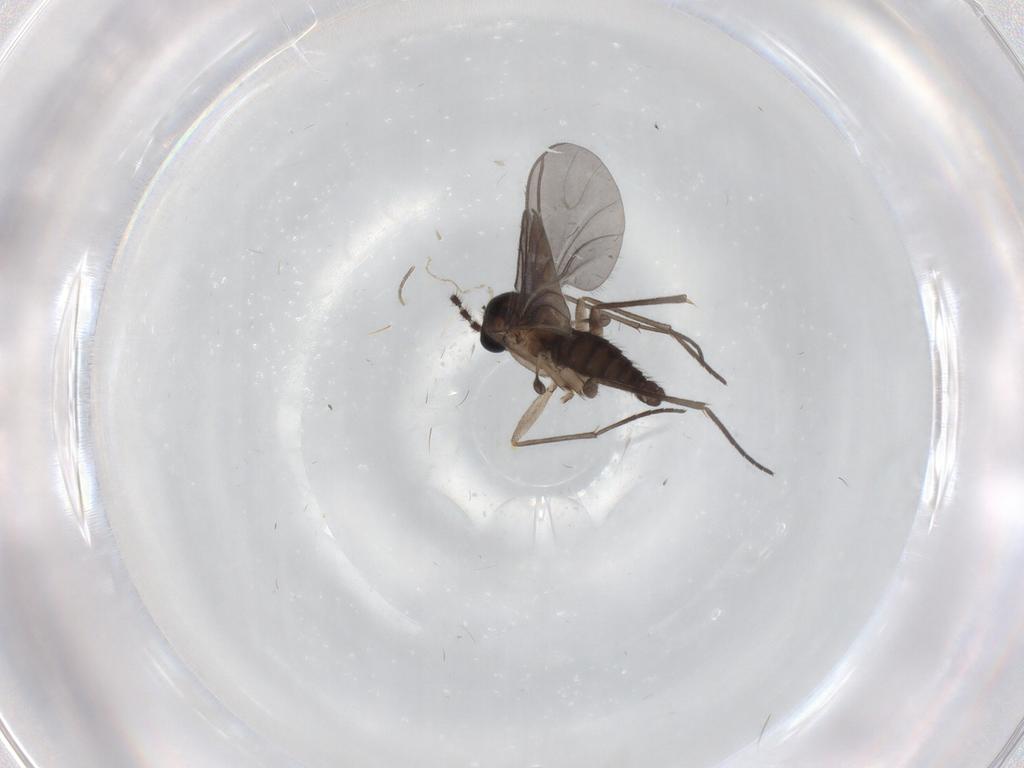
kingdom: Animalia
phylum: Arthropoda
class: Insecta
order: Diptera
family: Sciaridae
